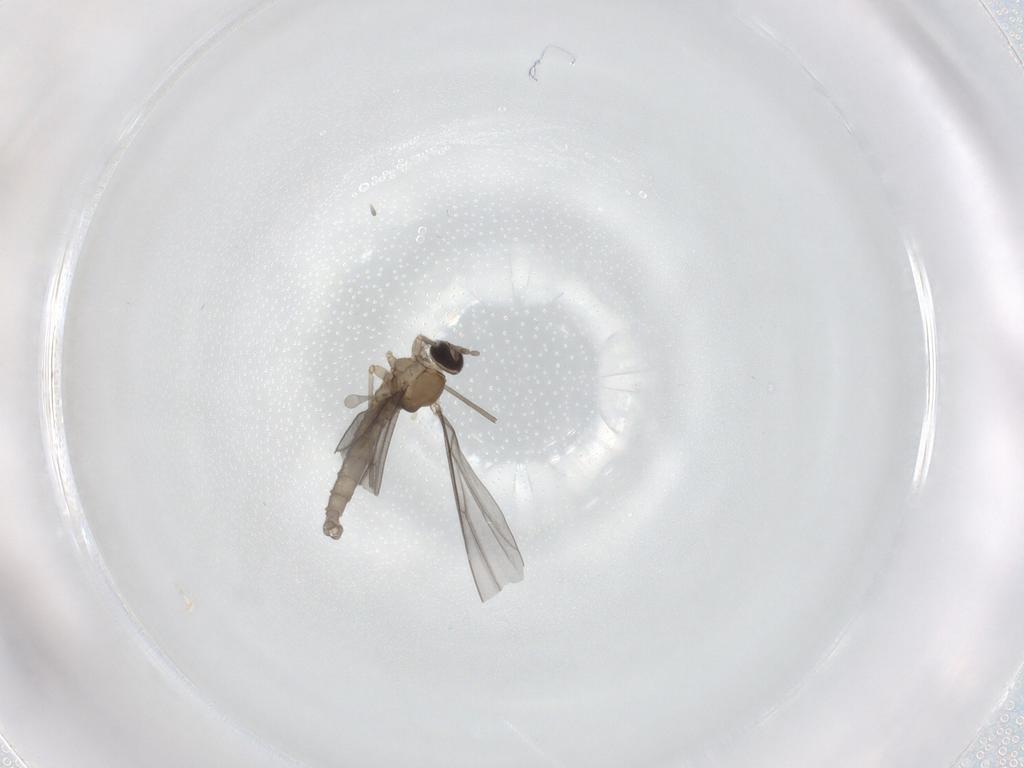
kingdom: Animalia
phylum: Arthropoda
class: Insecta
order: Diptera
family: Cecidomyiidae
